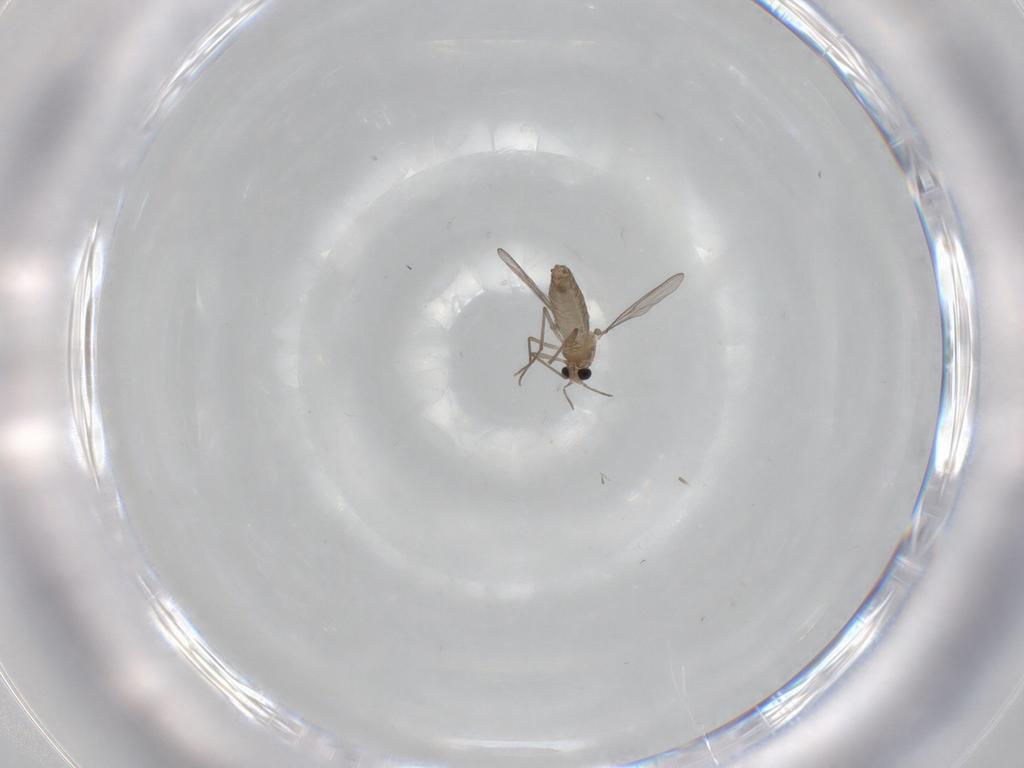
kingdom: Animalia
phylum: Arthropoda
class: Insecta
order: Diptera
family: Chironomidae
